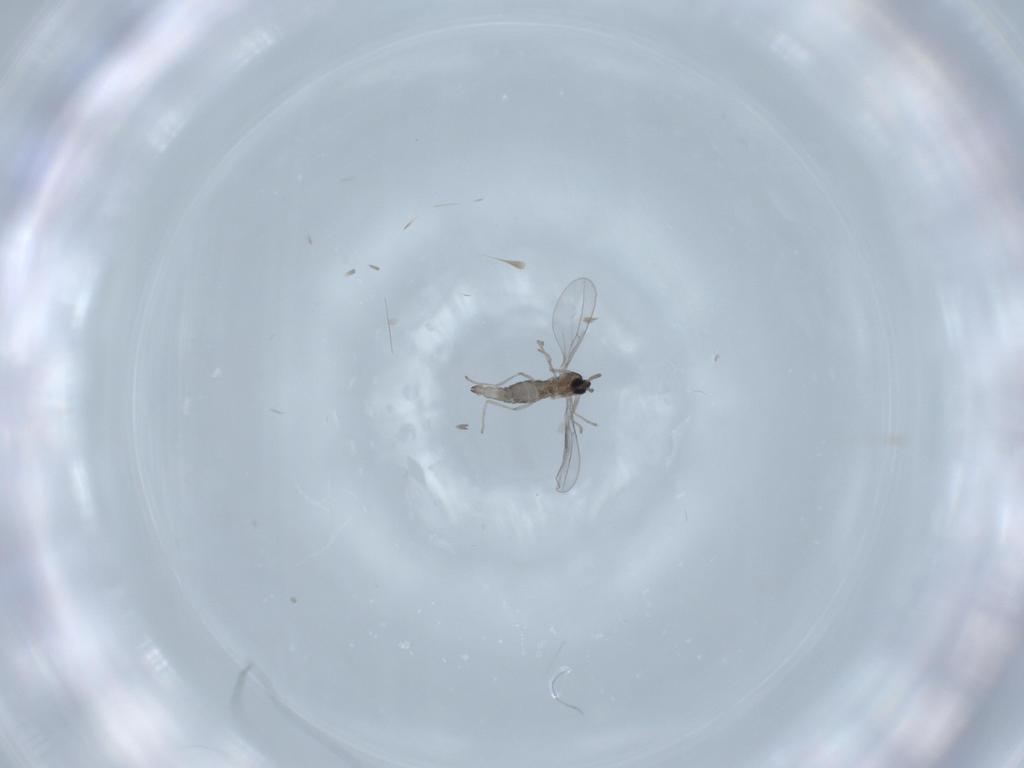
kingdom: Animalia
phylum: Arthropoda
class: Insecta
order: Diptera
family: Cecidomyiidae
